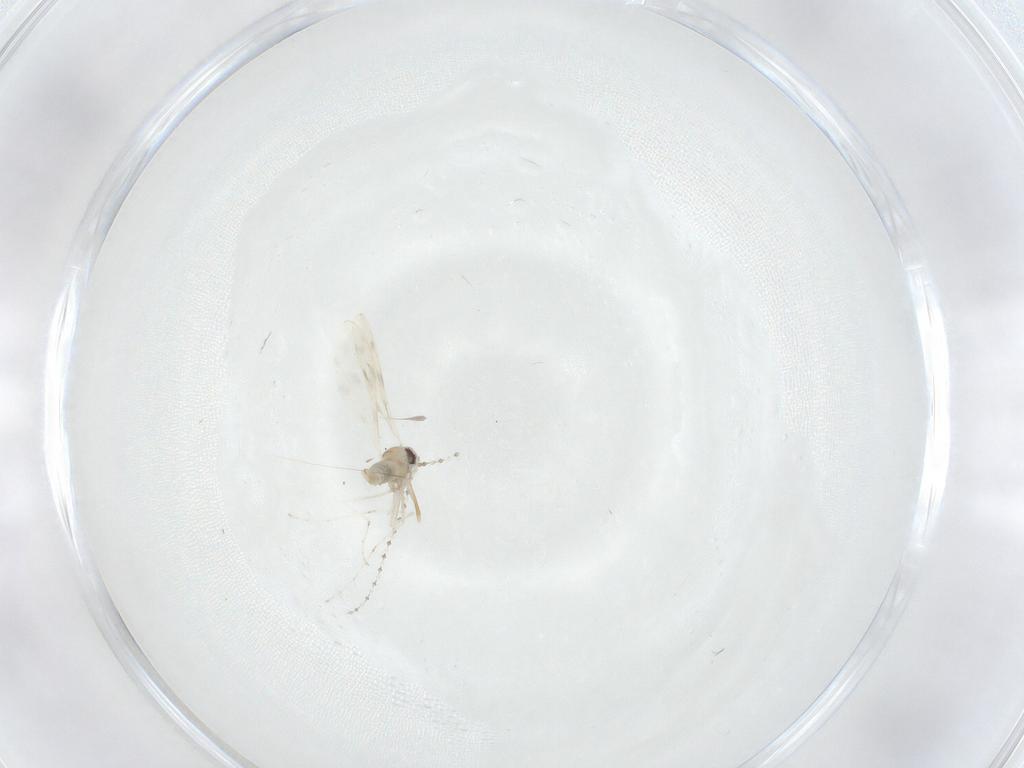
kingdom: Animalia
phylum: Arthropoda
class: Insecta
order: Diptera
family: Cecidomyiidae
